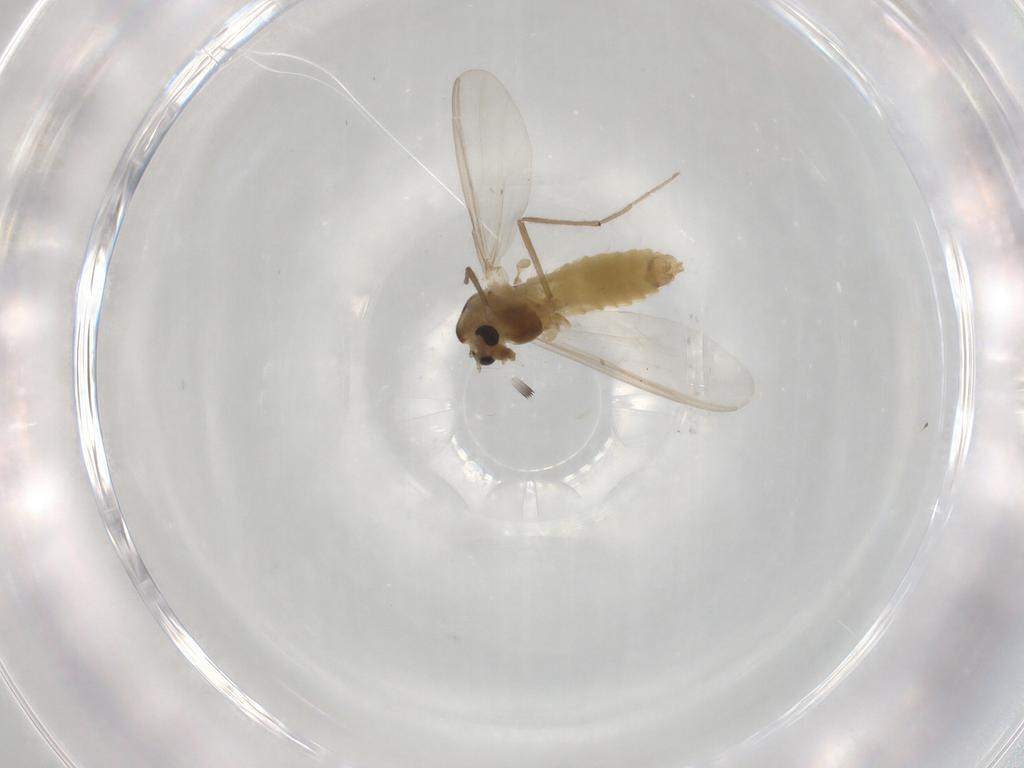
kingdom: Animalia
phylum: Arthropoda
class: Insecta
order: Diptera
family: Chironomidae
